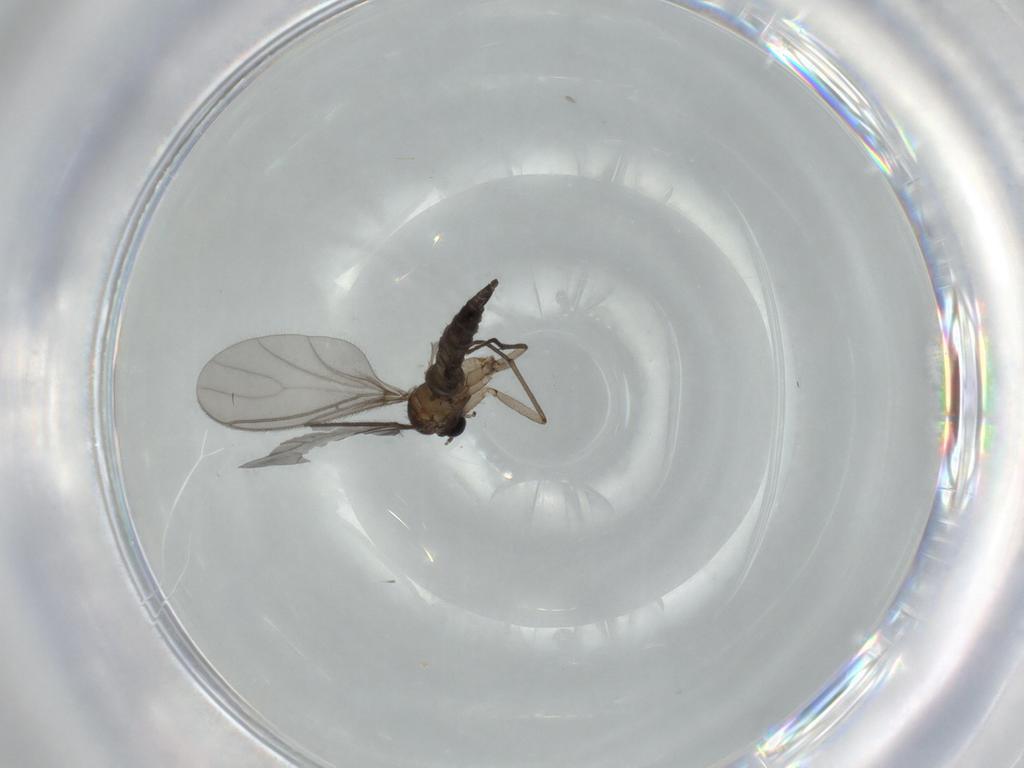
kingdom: Animalia
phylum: Arthropoda
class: Insecta
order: Diptera
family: Sciaridae
